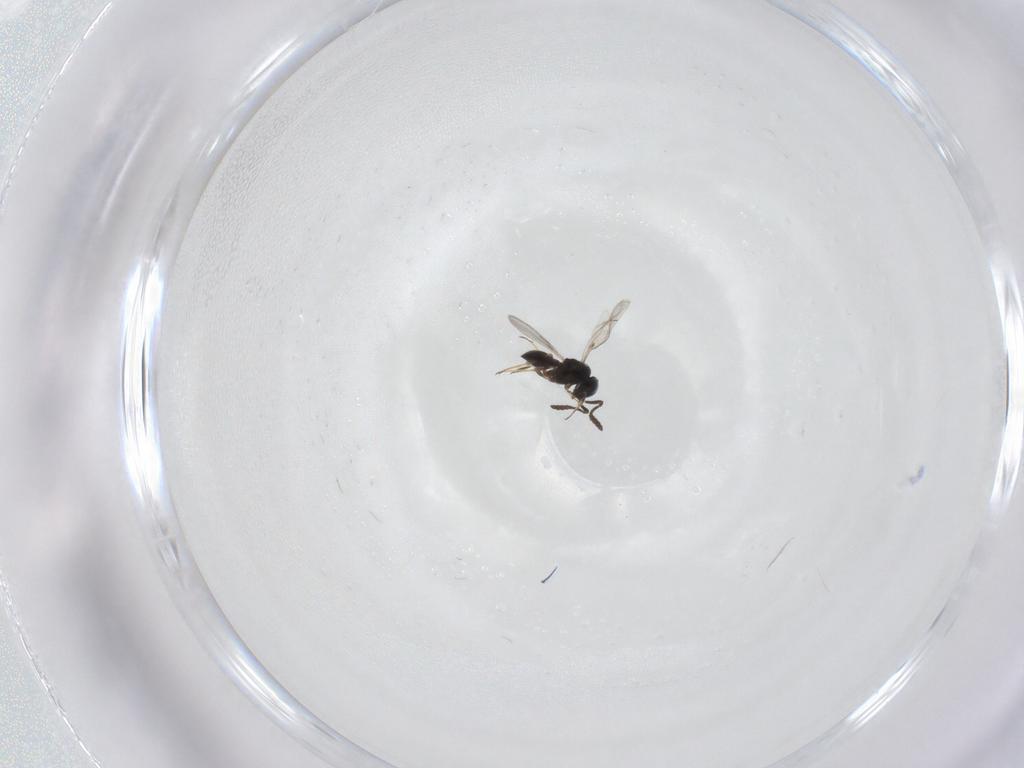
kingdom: Animalia
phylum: Arthropoda
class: Insecta
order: Hymenoptera
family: Scelionidae
